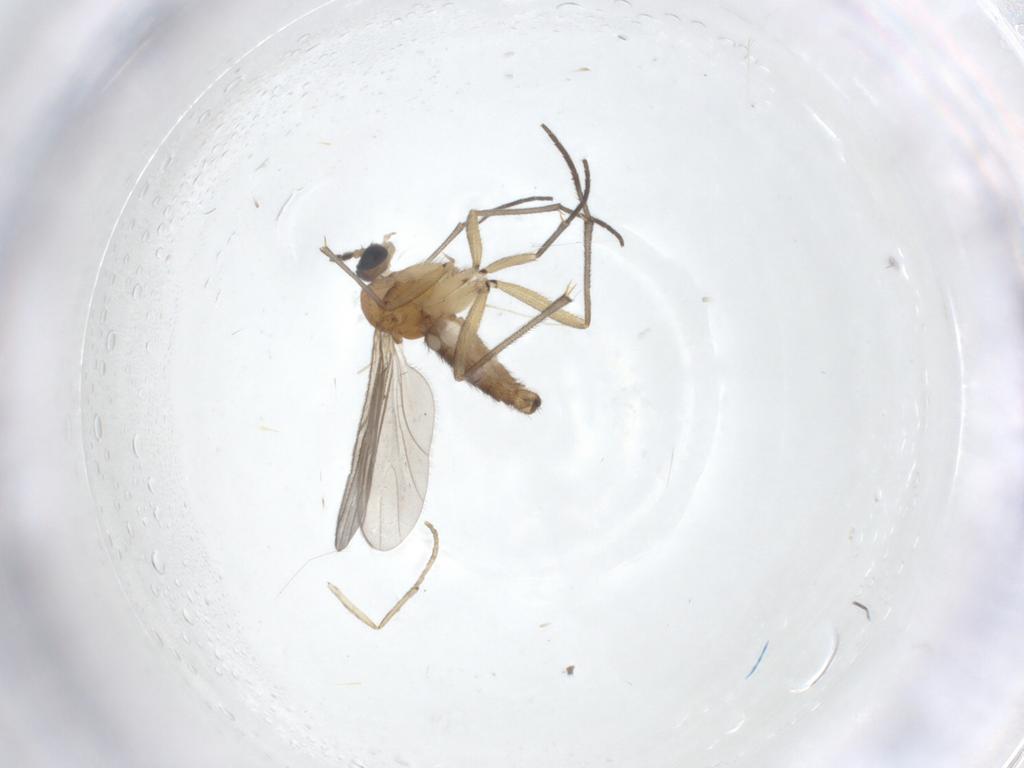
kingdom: Animalia
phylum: Arthropoda
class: Insecta
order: Diptera
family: Sciaridae
